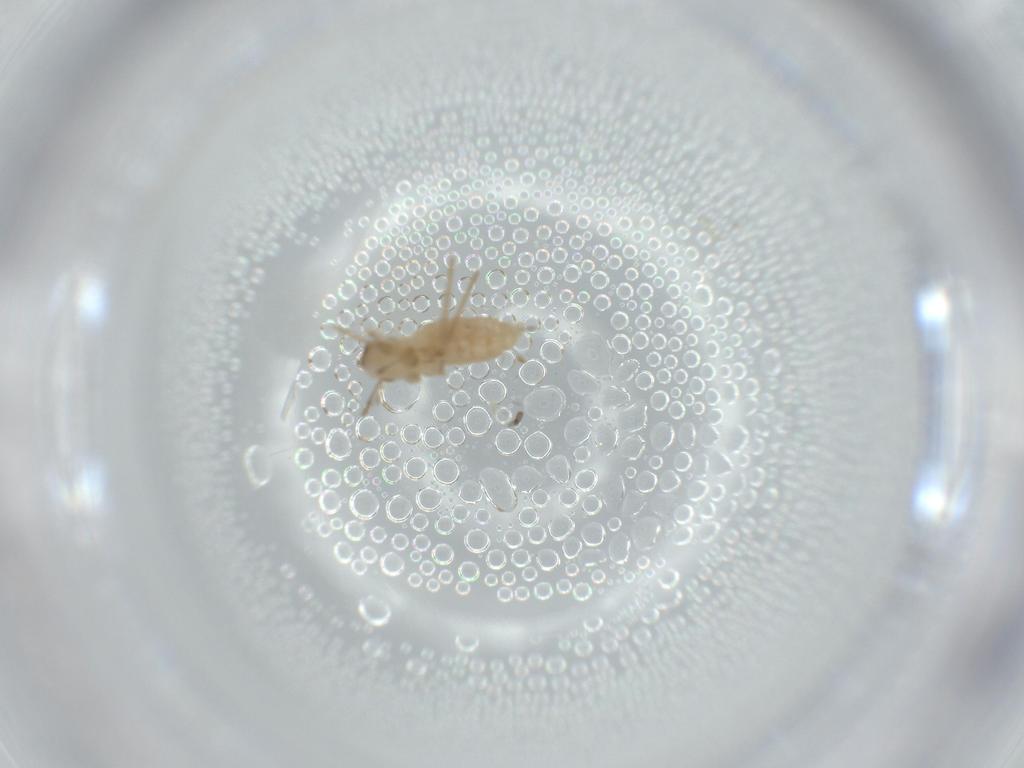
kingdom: Animalia
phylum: Arthropoda
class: Insecta
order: Diptera
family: Cecidomyiidae
